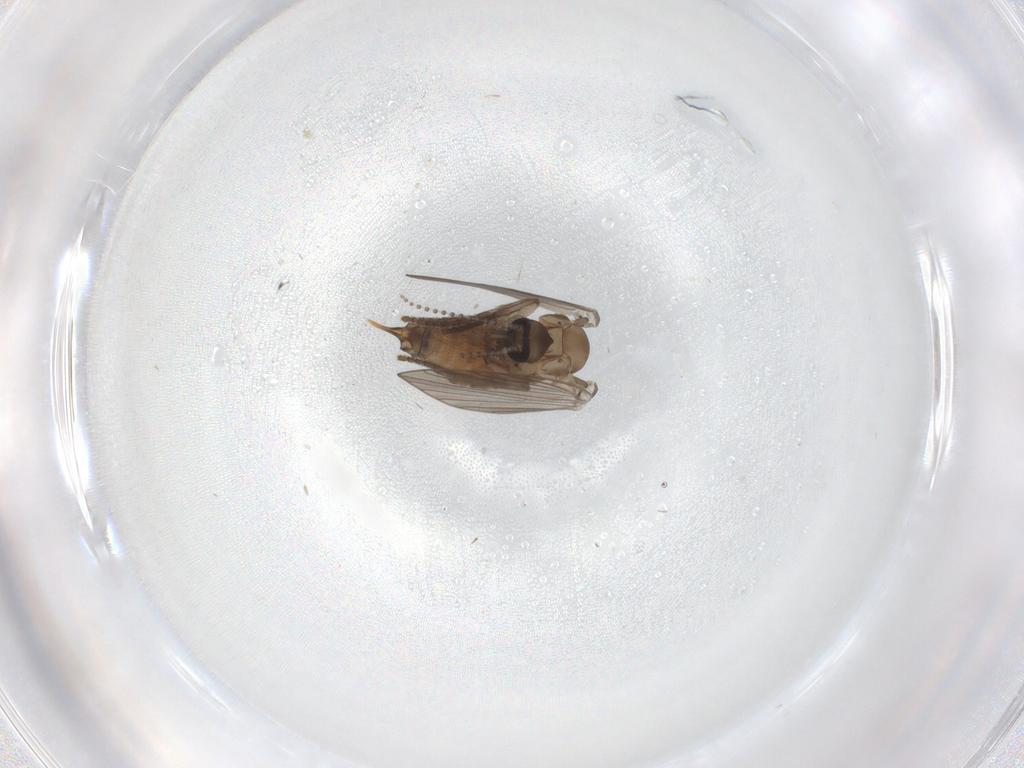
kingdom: Animalia
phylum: Arthropoda
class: Insecta
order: Diptera
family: Psychodidae
